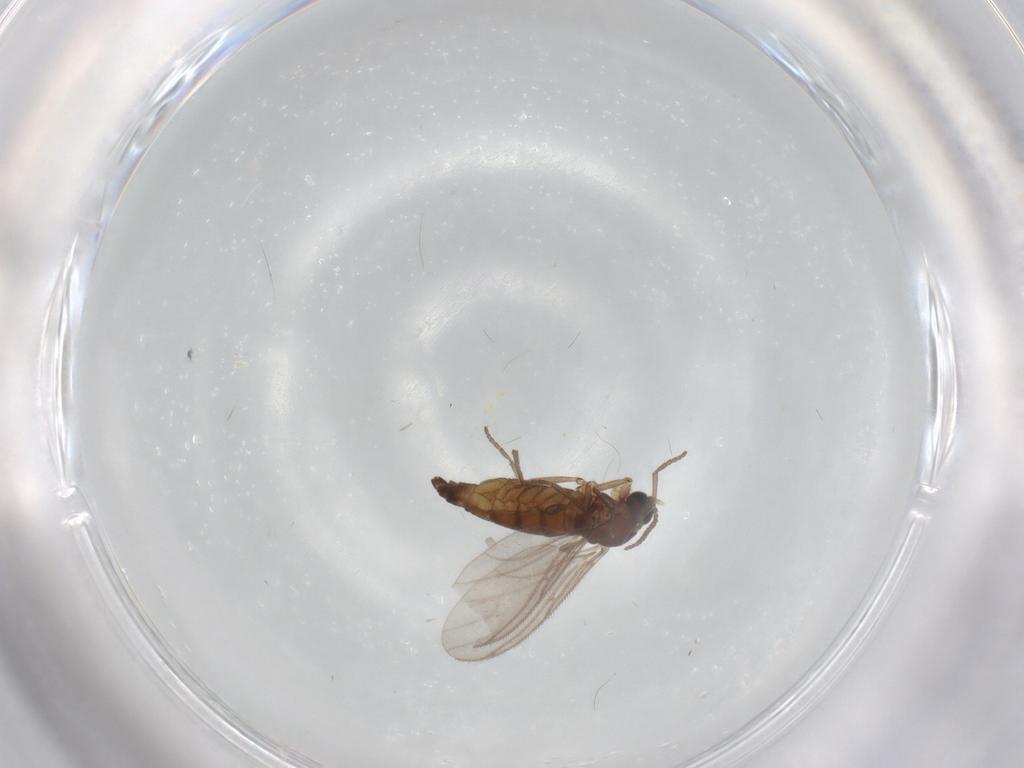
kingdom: Animalia
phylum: Arthropoda
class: Insecta
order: Diptera
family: Sciaridae
